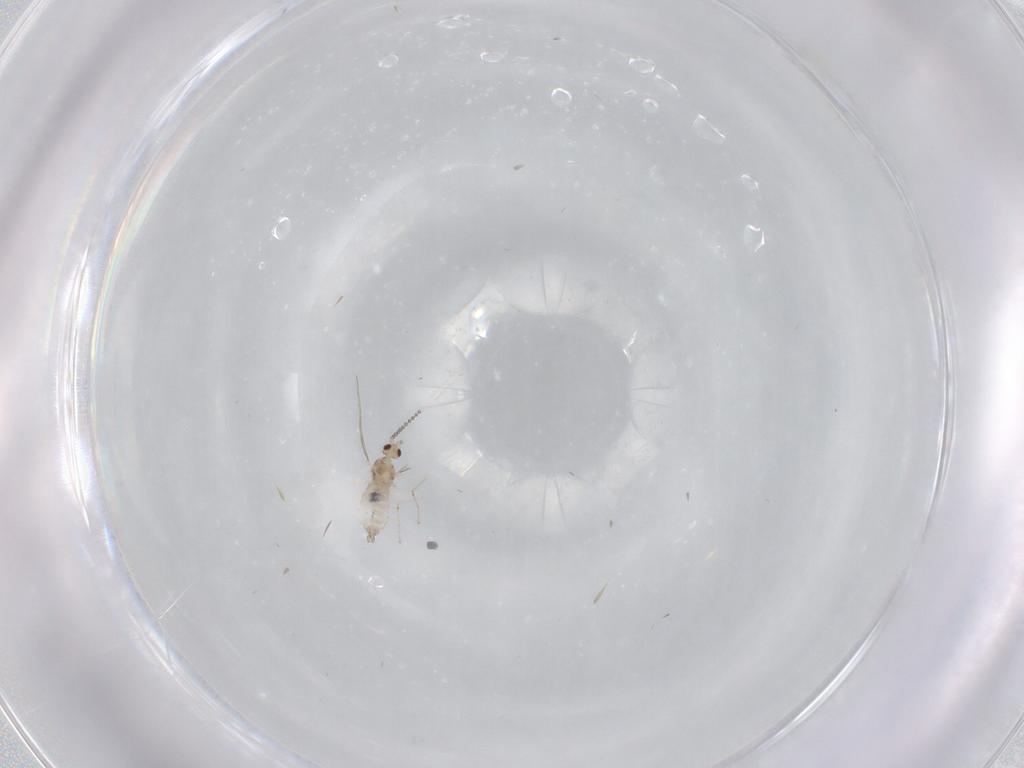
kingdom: Animalia
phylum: Arthropoda
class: Insecta
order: Diptera
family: Cecidomyiidae
